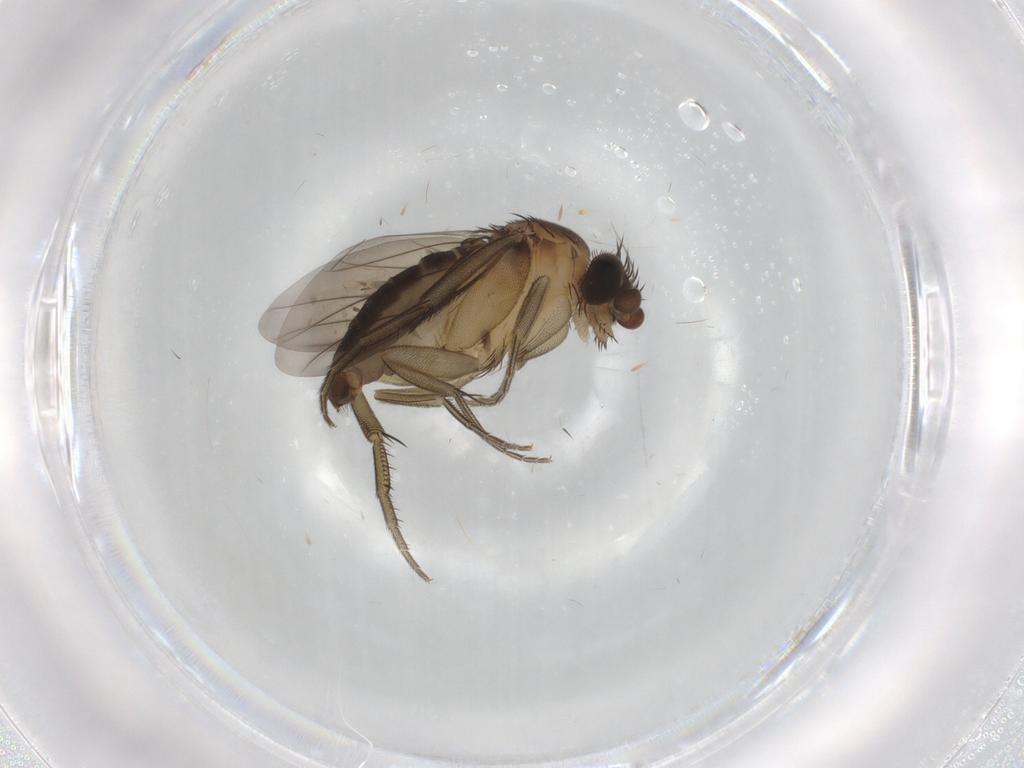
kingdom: Animalia
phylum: Arthropoda
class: Insecta
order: Diptera
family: Phoridae
